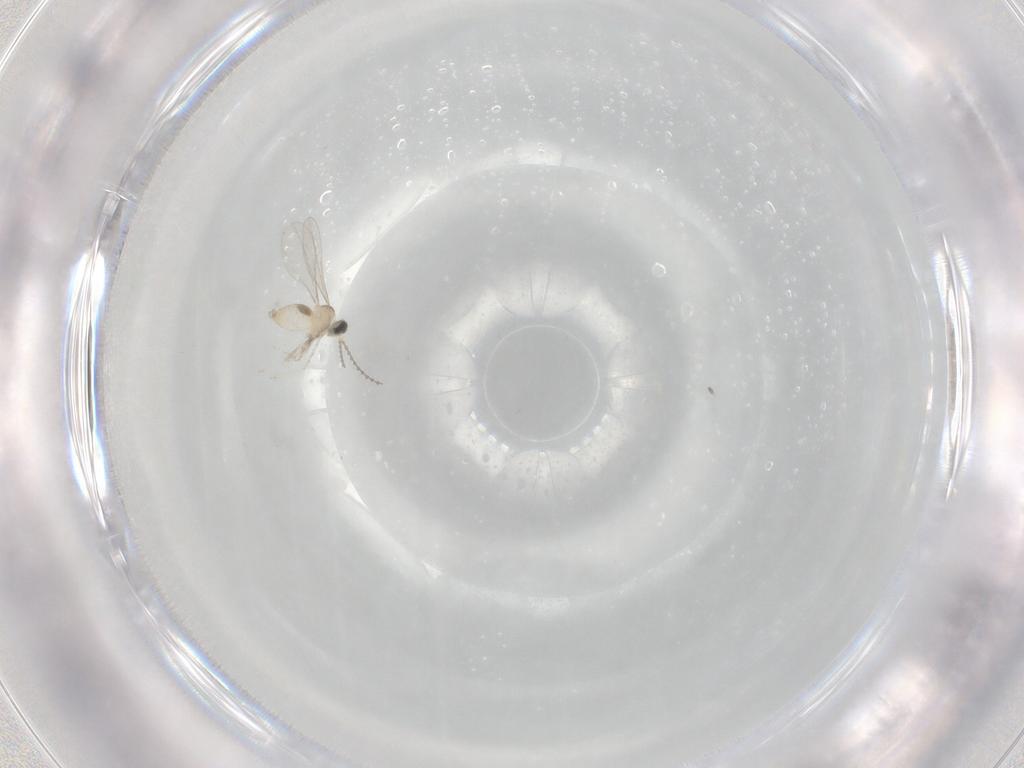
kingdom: Animalia
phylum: Arthropoda
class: Insecta
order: Diptera
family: Cecidomyiidae
